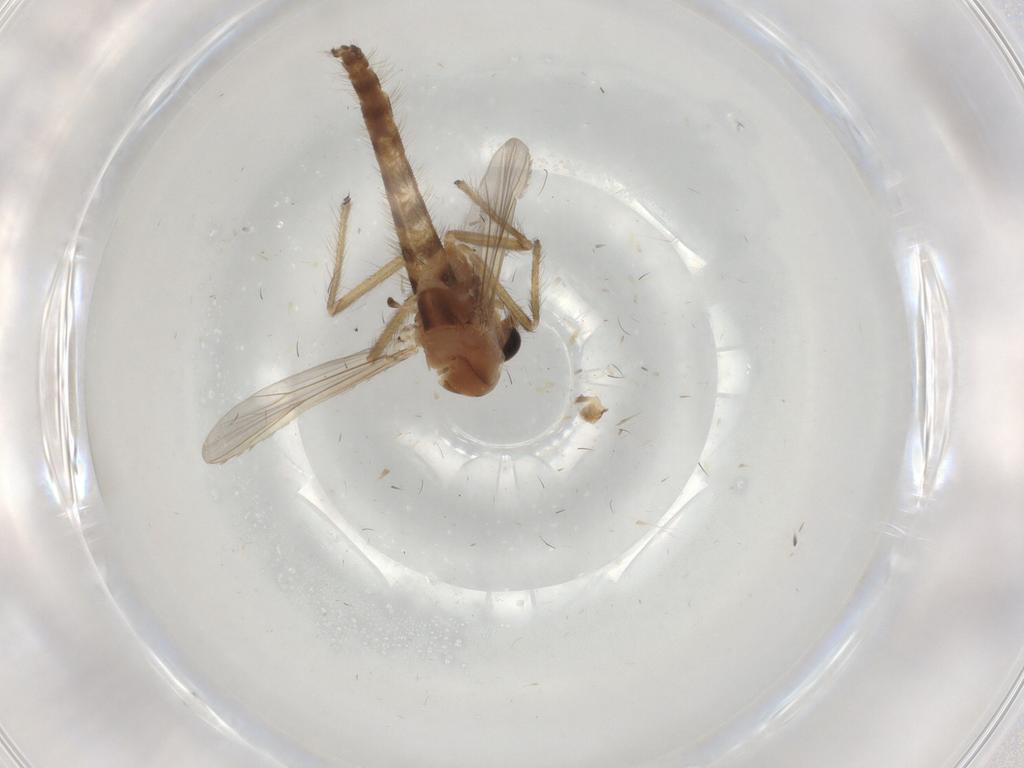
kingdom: Animalia
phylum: Arthropoda
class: Insecta
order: Diptera
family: Chironomidae
